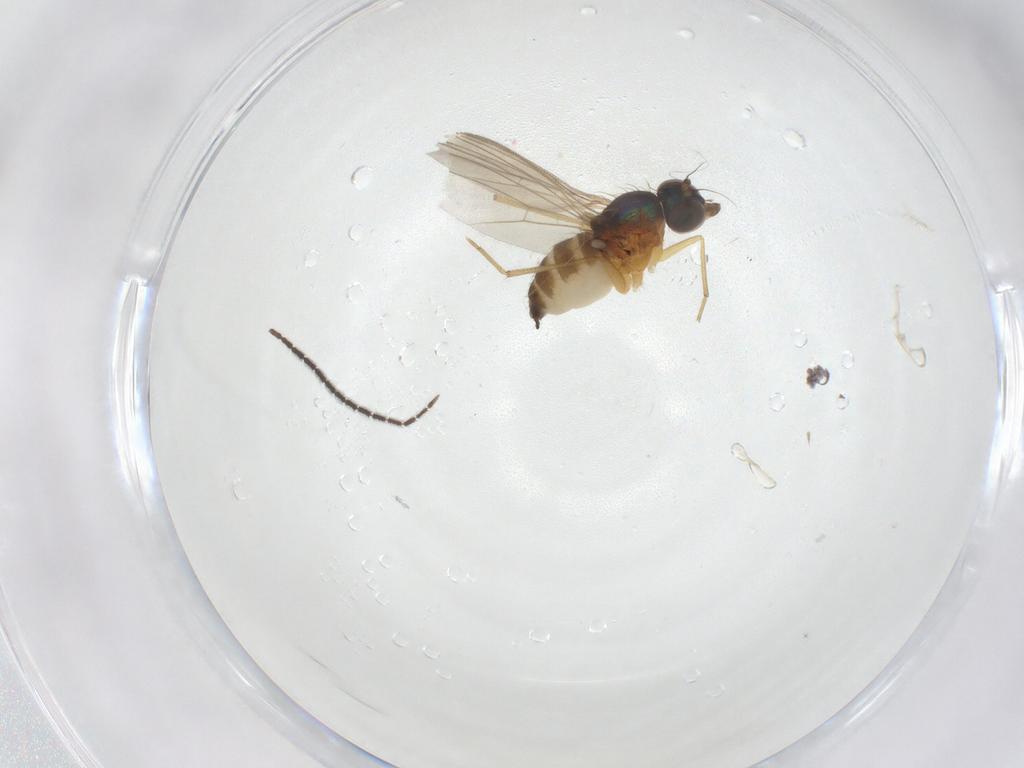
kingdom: Animalia
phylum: Arthropoda
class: Insecta
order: Diptera
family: Dolichopodidae
